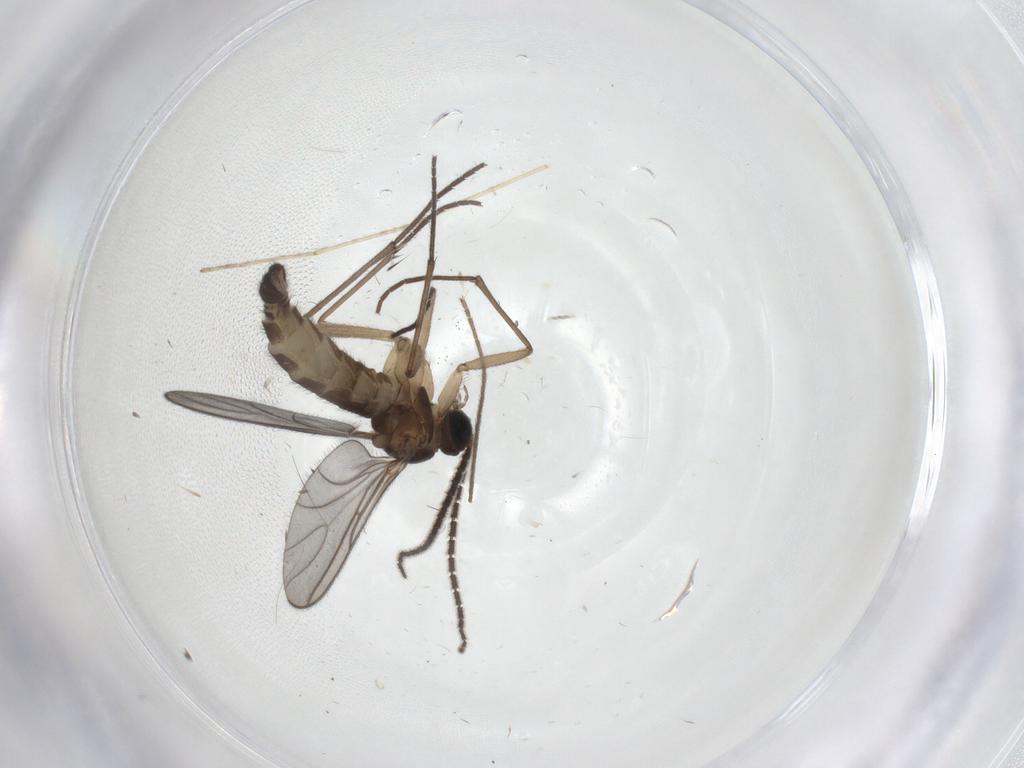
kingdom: Animalia
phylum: Arthropoda
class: Insecta
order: Diptera
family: Sciaridae
